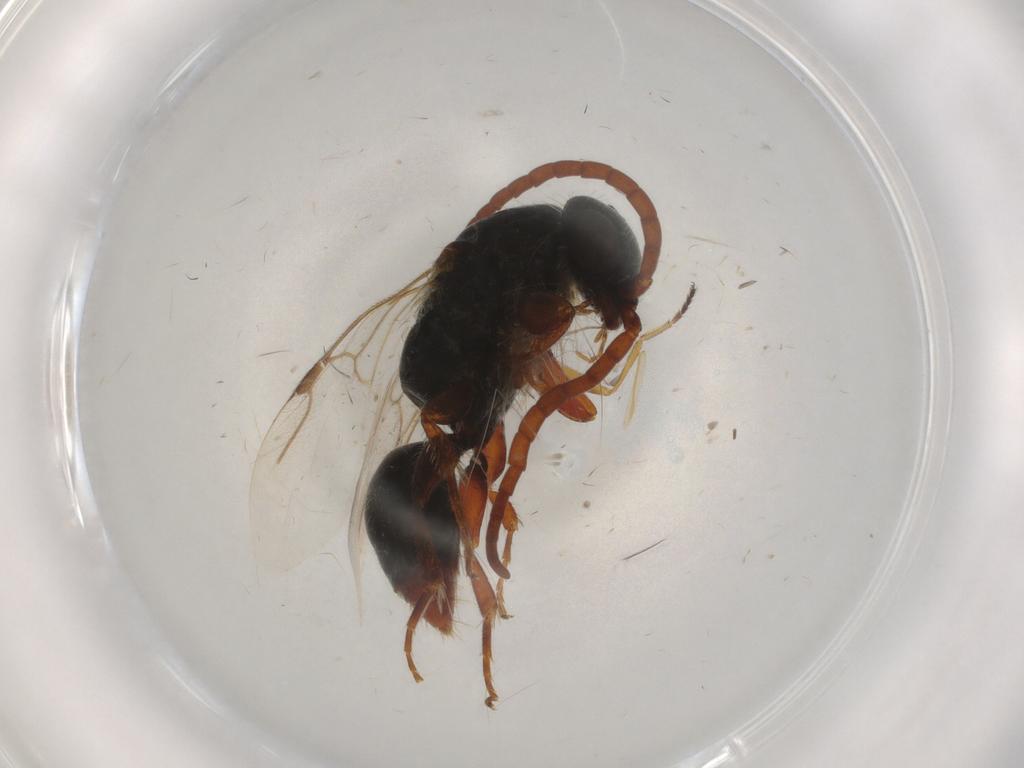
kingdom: Animalia
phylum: Arthropoda
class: Insecta
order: Hymenoptera
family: Bethylidae
